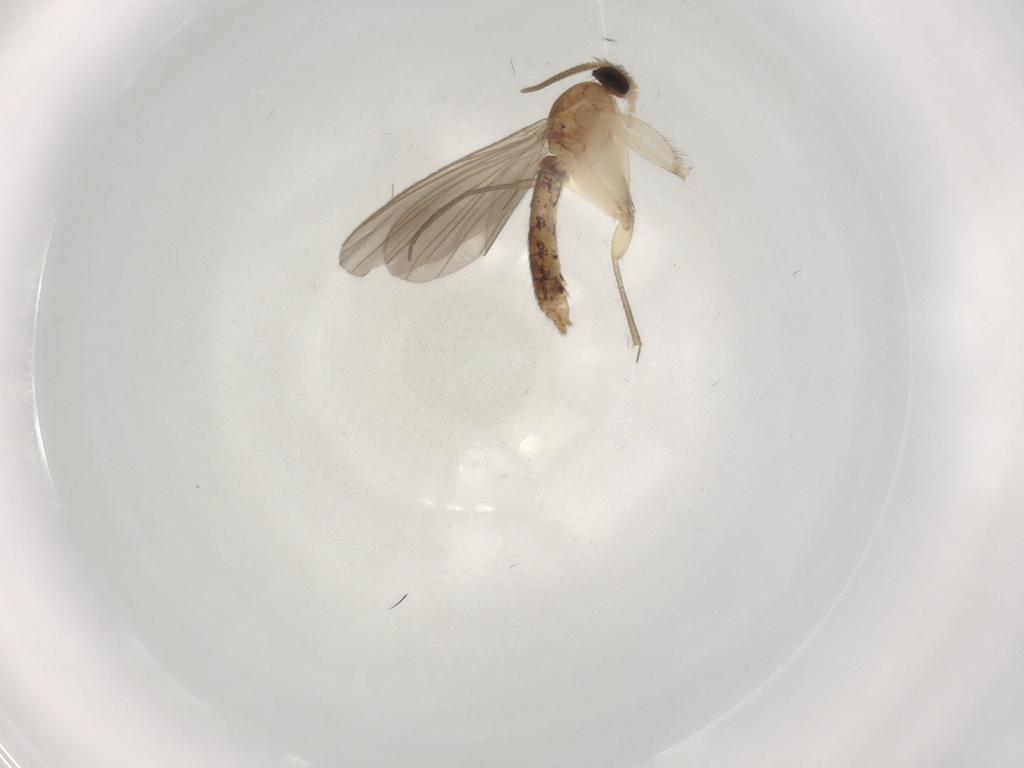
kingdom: Animalia
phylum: Arthropoda
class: Insecta
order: Diptera
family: Mycetophilidae
